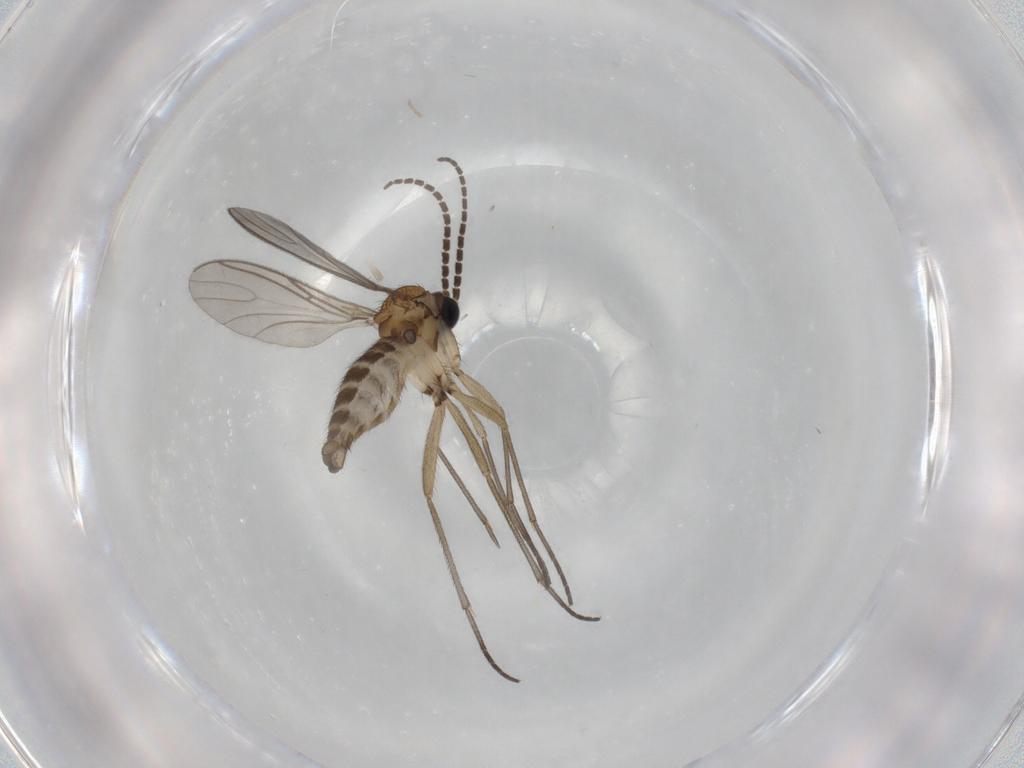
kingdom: Animalia
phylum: Arthropoda
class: Insecta
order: Diptera
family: Sciaridae
